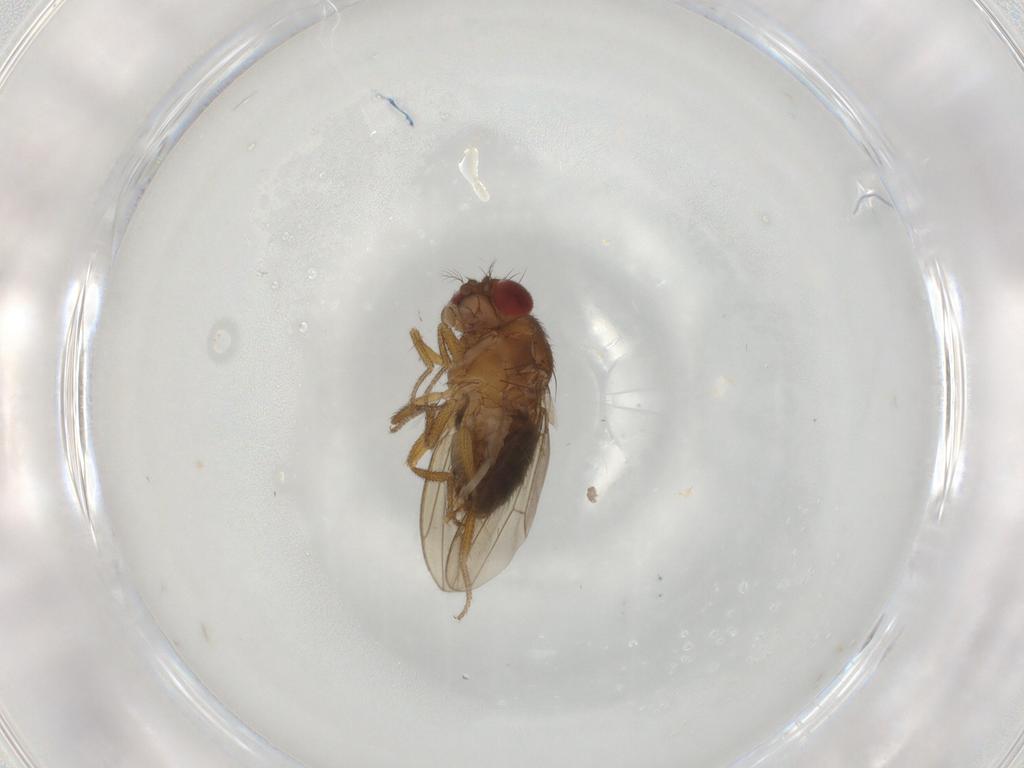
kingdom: Animalia
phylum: Arthropoda
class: Insecta
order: Diptera
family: Drosophilidae
